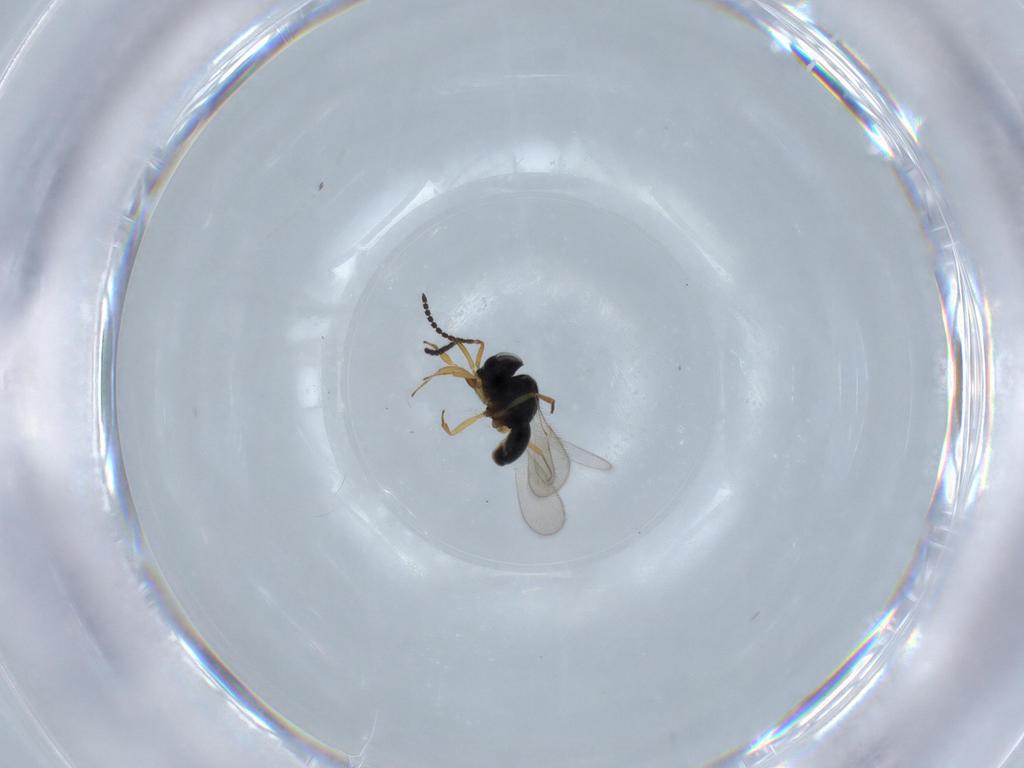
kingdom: Animalia
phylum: Arthropoda
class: Insecta
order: Hymenoptera
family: Scelionidae
